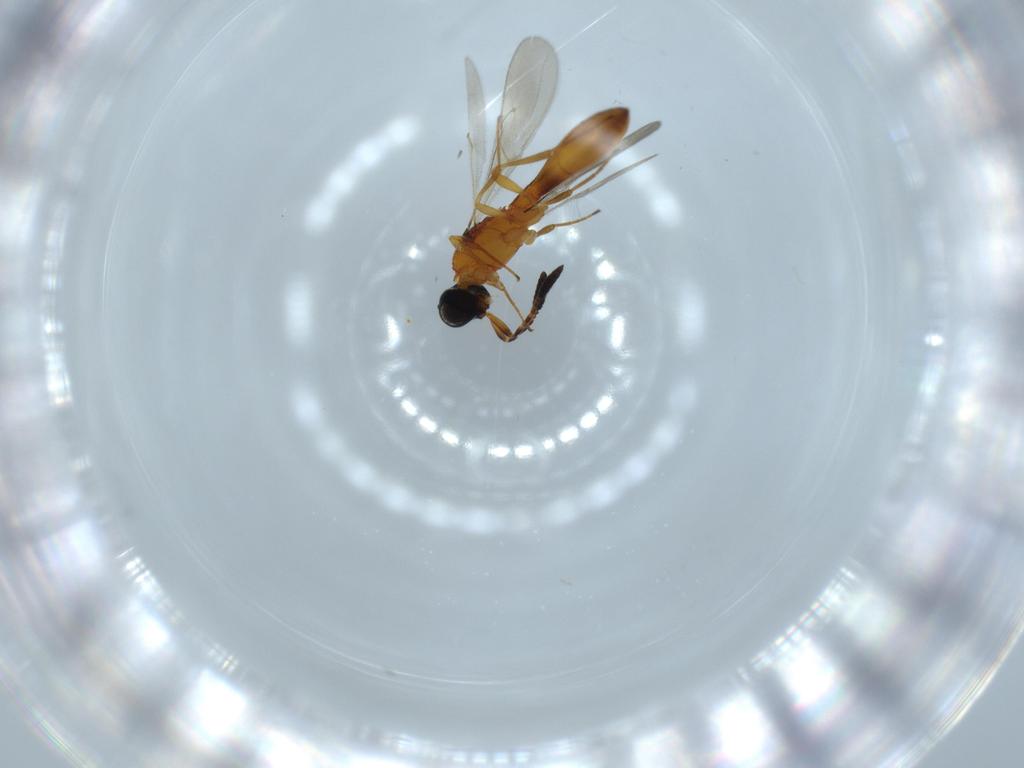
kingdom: Animalia
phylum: Arthropoda
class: Insecta
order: Hymenoptera
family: Scelionidae
